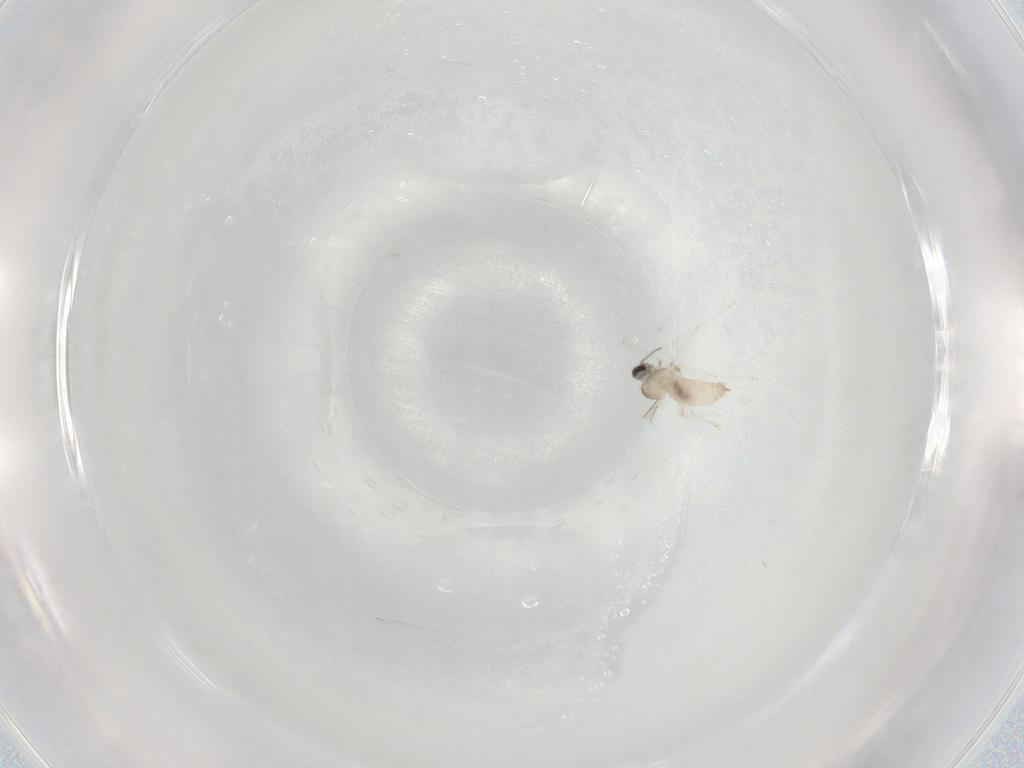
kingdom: Animalia
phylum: Arthropoda
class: Insecta
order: Diptera
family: Cecidomyiidae
